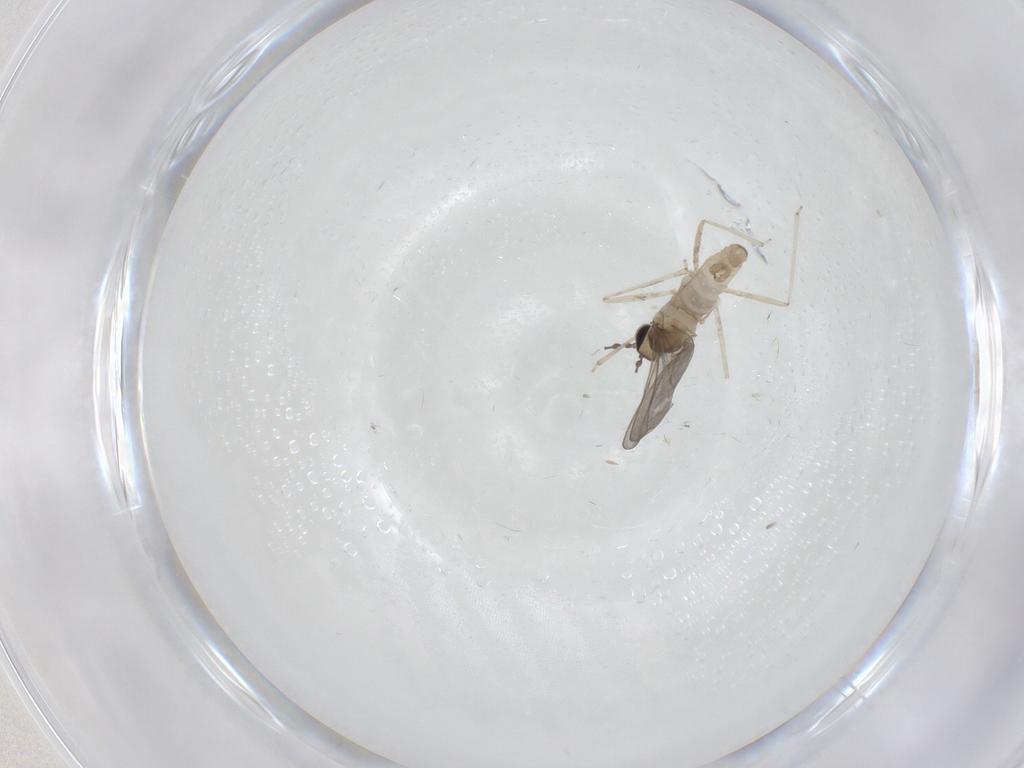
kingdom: Animalia
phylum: Arthropoda
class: Insecta
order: Diptera
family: Cecidomyiidae
